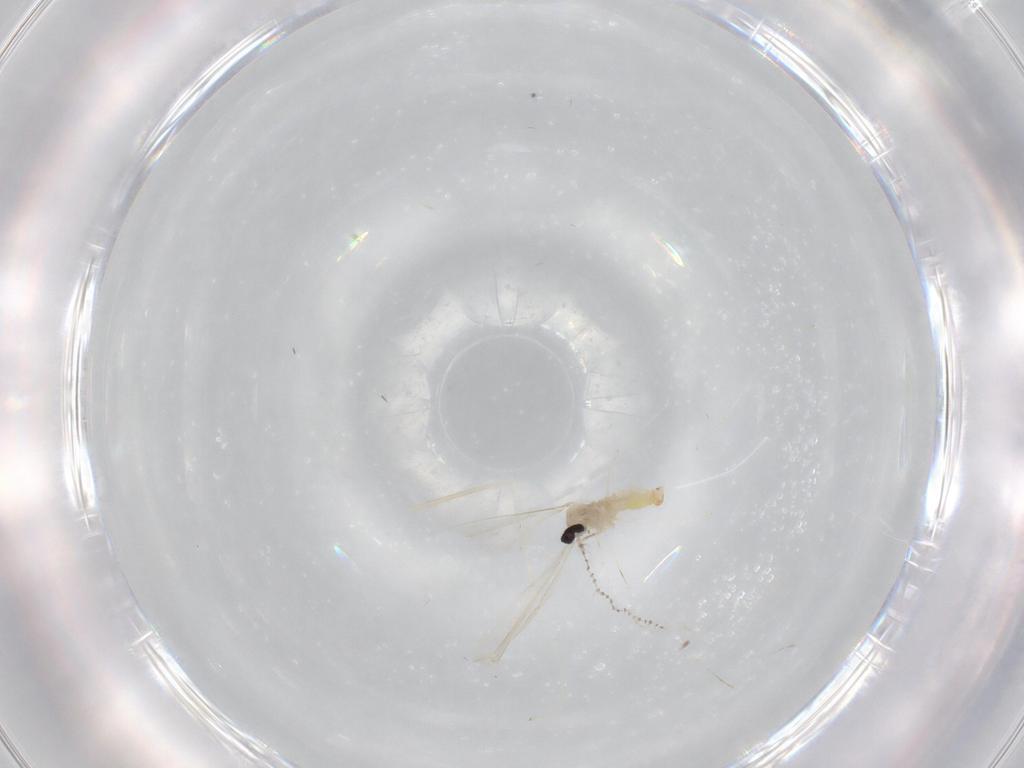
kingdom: Animalia
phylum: Arthropoda
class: Insecta
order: Diptera
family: Cecidomyiidae
